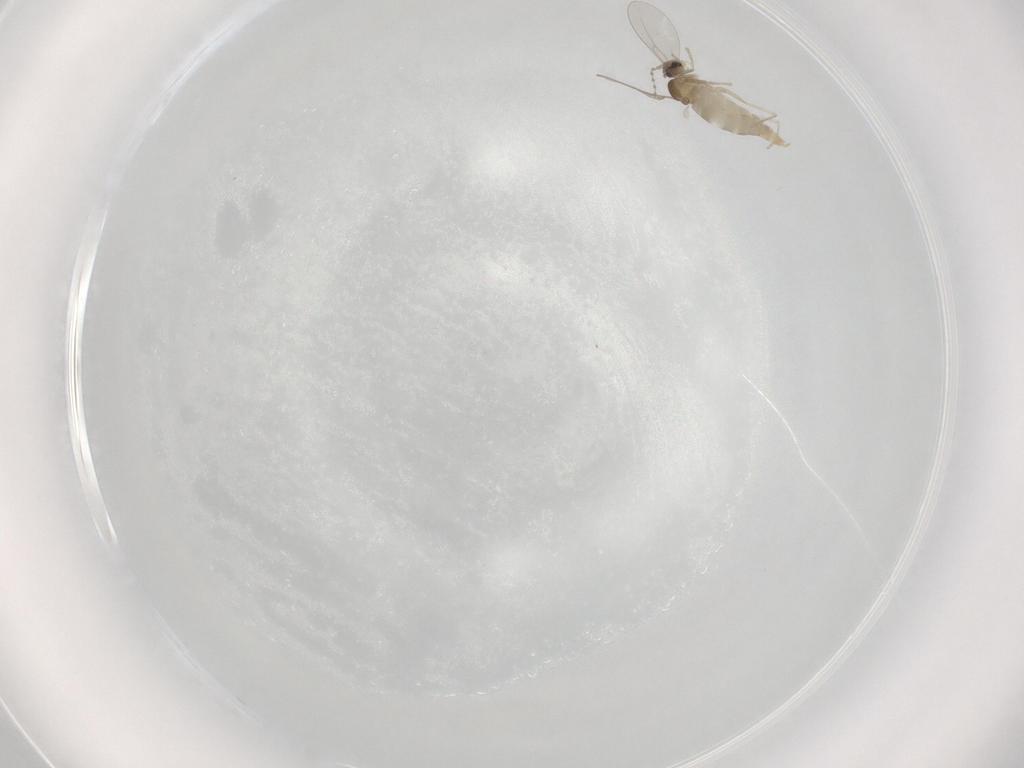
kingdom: Animalia
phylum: Arthropoda
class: Insecta
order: Diptera
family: Cecidomyiidae
